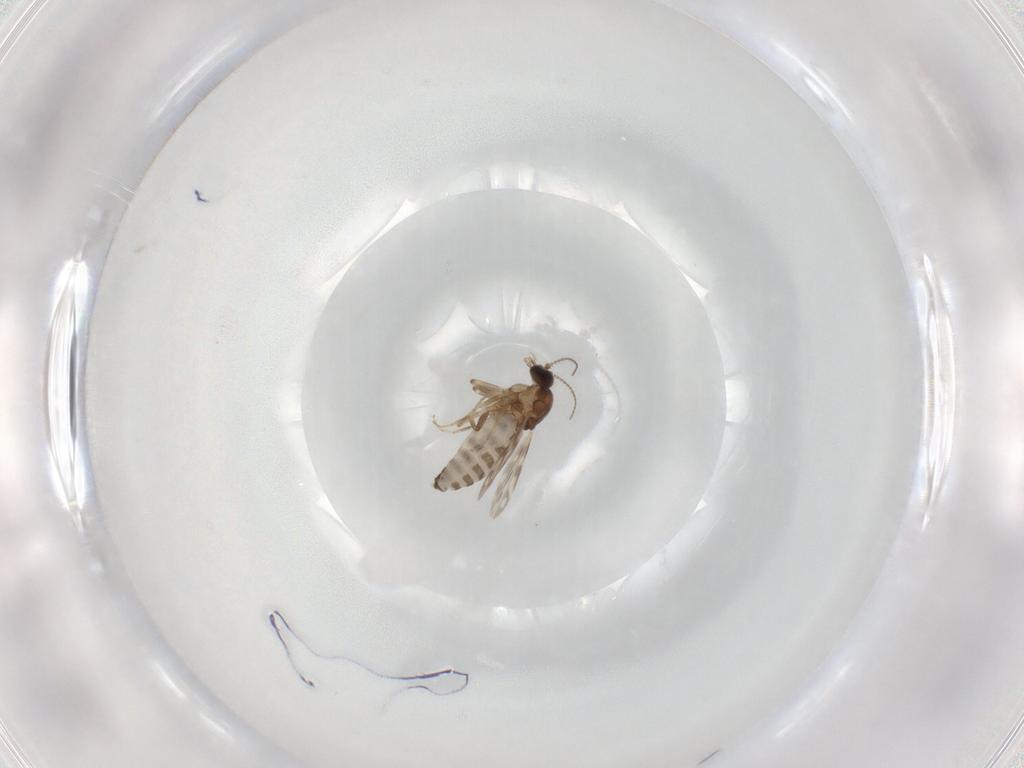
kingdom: Animalia
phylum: Arthropoda
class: Insecta
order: Diptera
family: Ceratopogonidae
